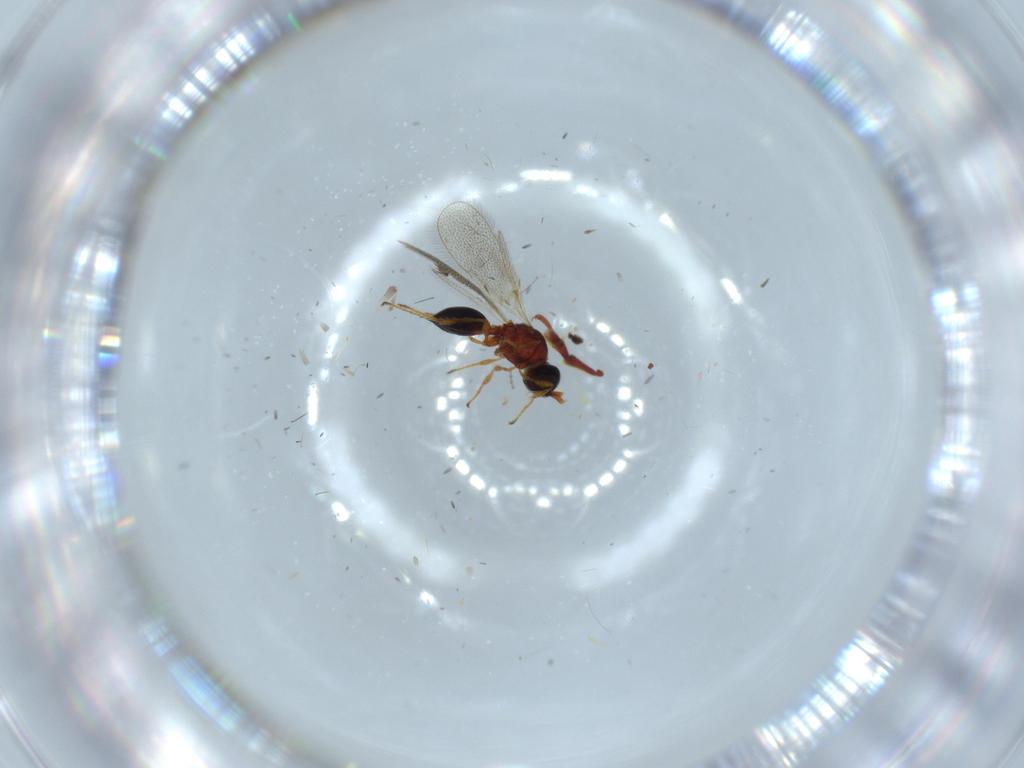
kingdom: Animalia
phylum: Arthropoda
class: Insecta
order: Hymenoptera
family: Diapriidae
